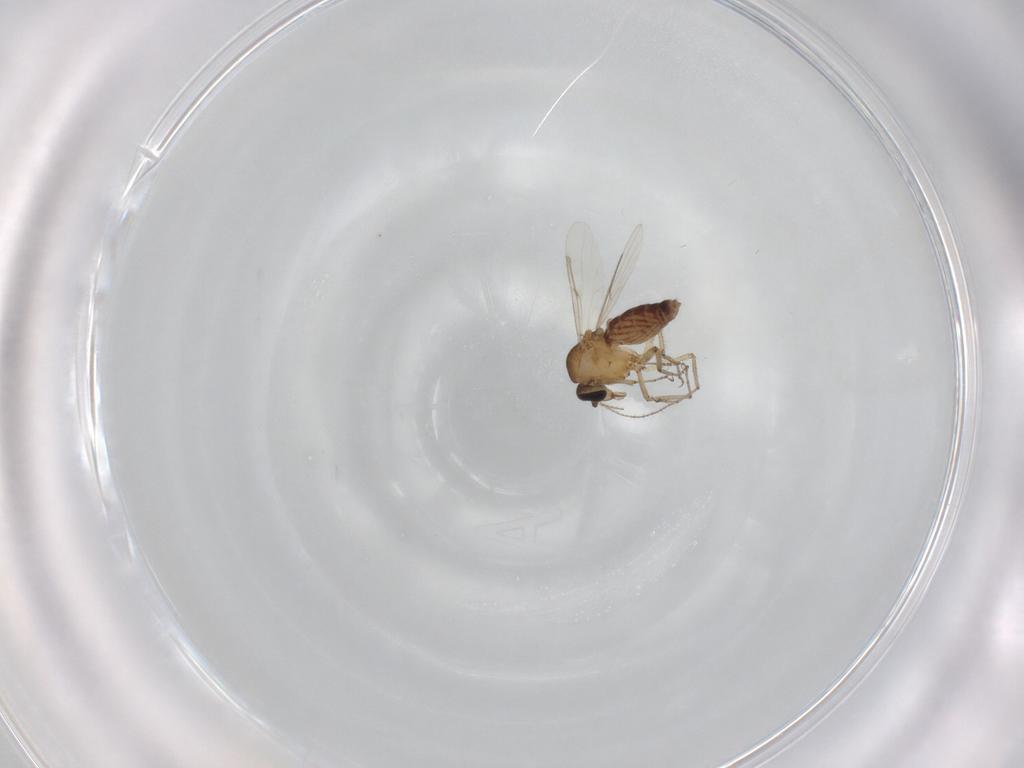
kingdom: Animalia
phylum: Arthropoda
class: Insecta
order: Diptera
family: Ceratopogonidae
